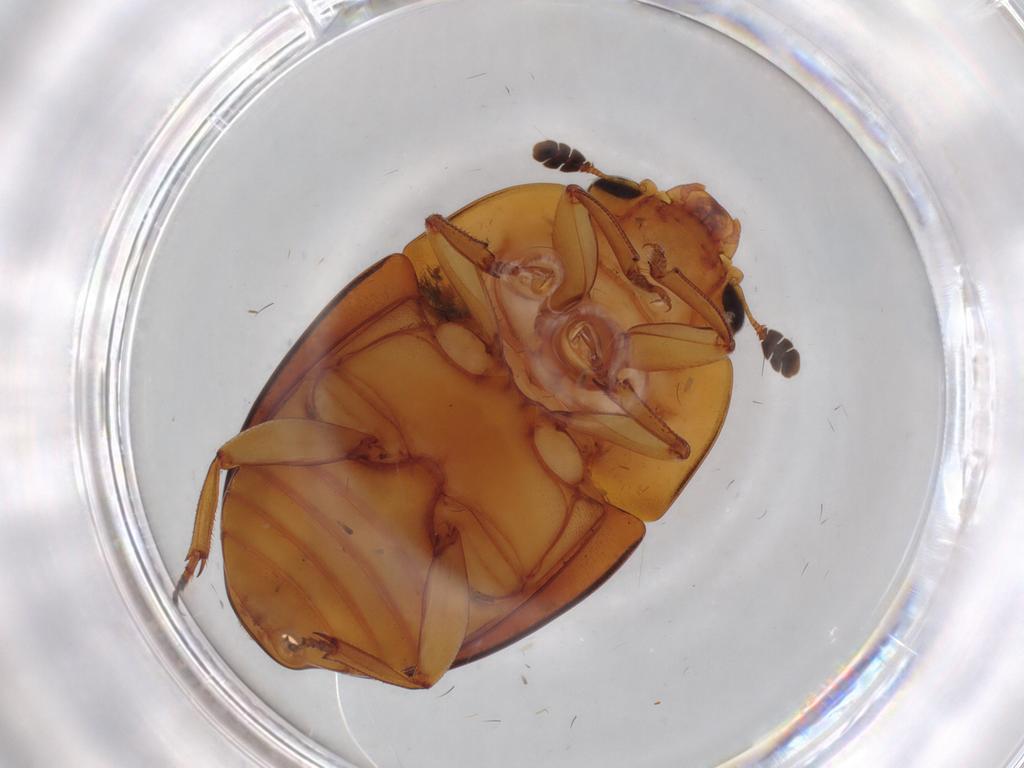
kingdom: Animalia
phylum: Arthropoda
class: Insecta
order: Coleoptera
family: Nitidulidae
